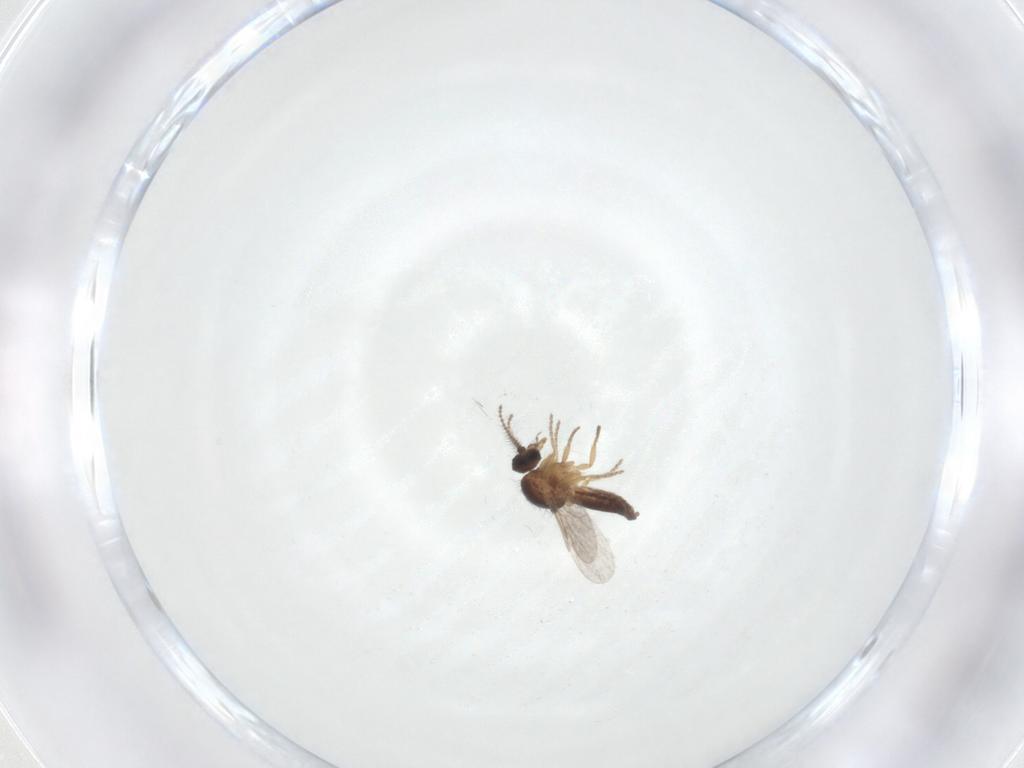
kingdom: Animalia
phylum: Arthropoda
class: Insecta
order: Diptera
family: Ceratopogonidae
